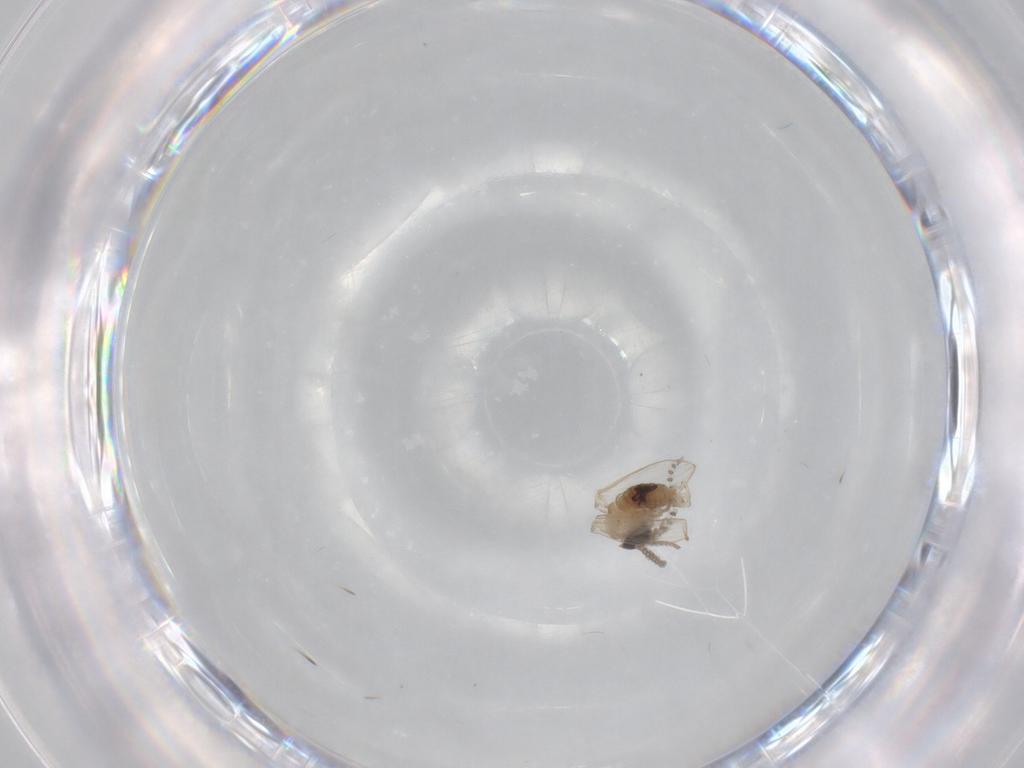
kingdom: Animalia
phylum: Arthropoda
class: Insecta
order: Diptera
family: Psychodidae
